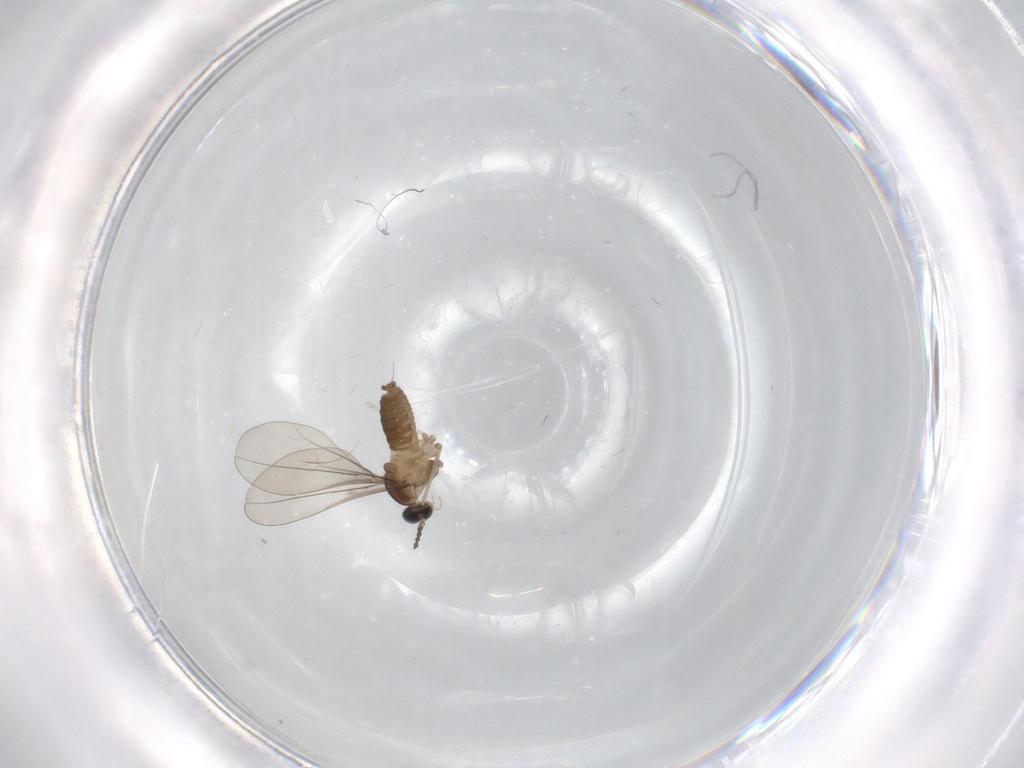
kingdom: Animalia
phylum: Arthropoda
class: Insecta
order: Diptera
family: Cecidomyiidae
